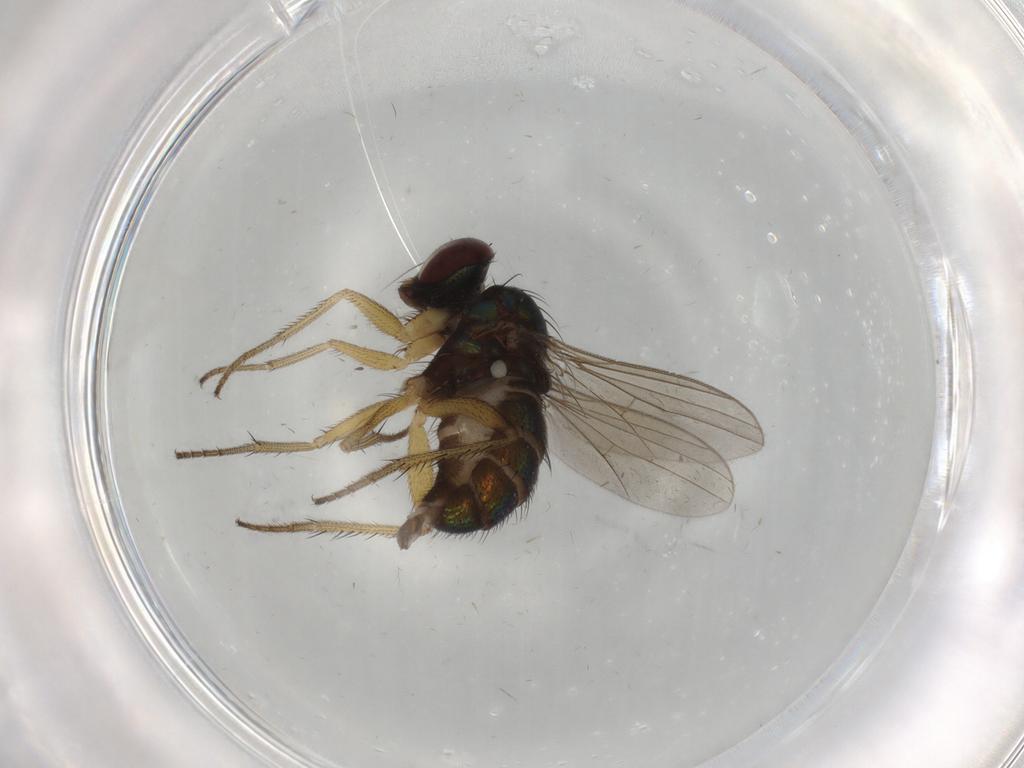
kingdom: Animalia
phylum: Arthropoda
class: Insecta
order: Diptera
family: Dolichopodidae
